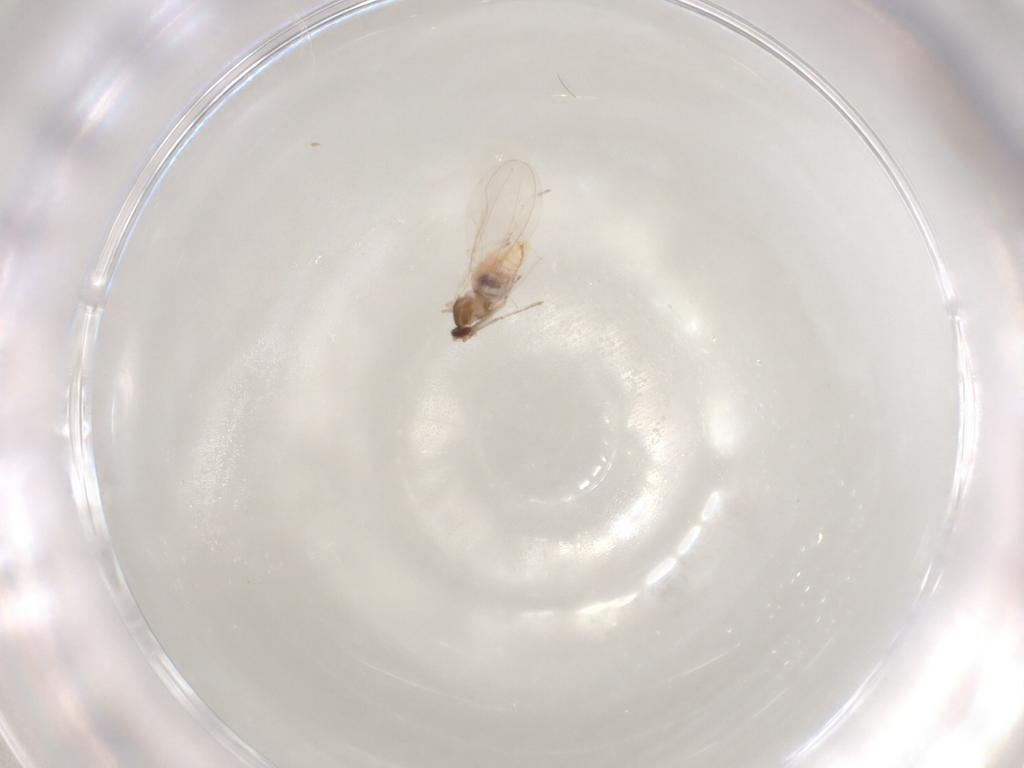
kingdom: Animalia
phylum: Arthropoda
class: Insecta
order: Diptera
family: Cecidomyiidae
